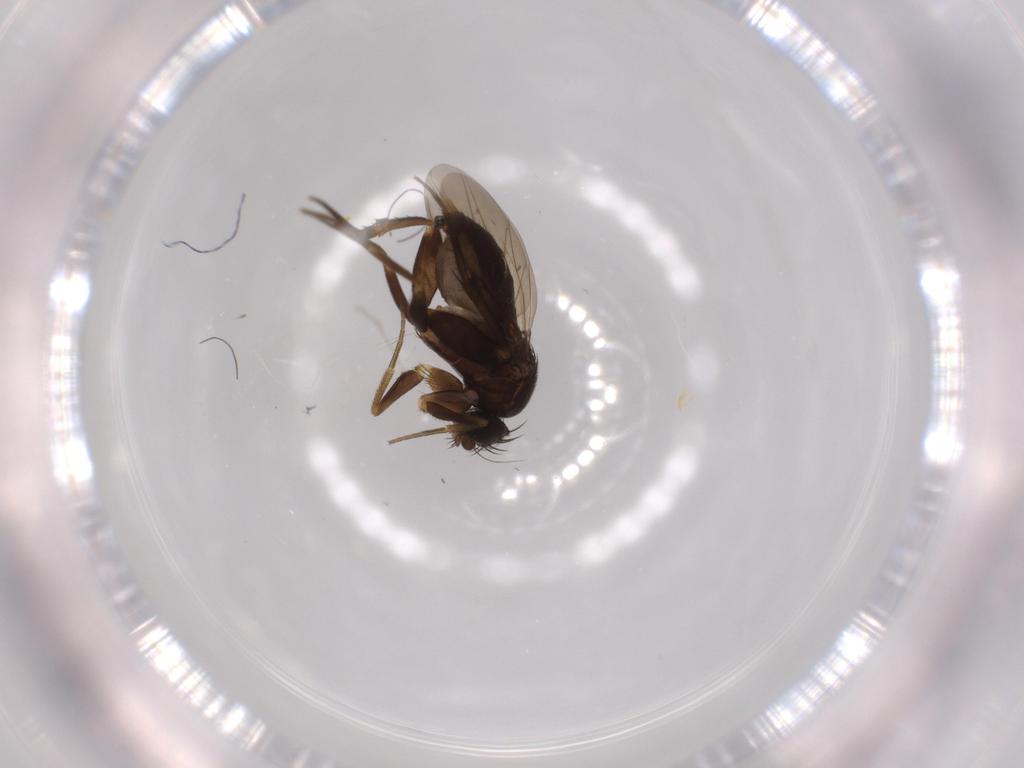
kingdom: Animalia
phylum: Arthropoda
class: Insecta
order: Diptera
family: Phoridae
